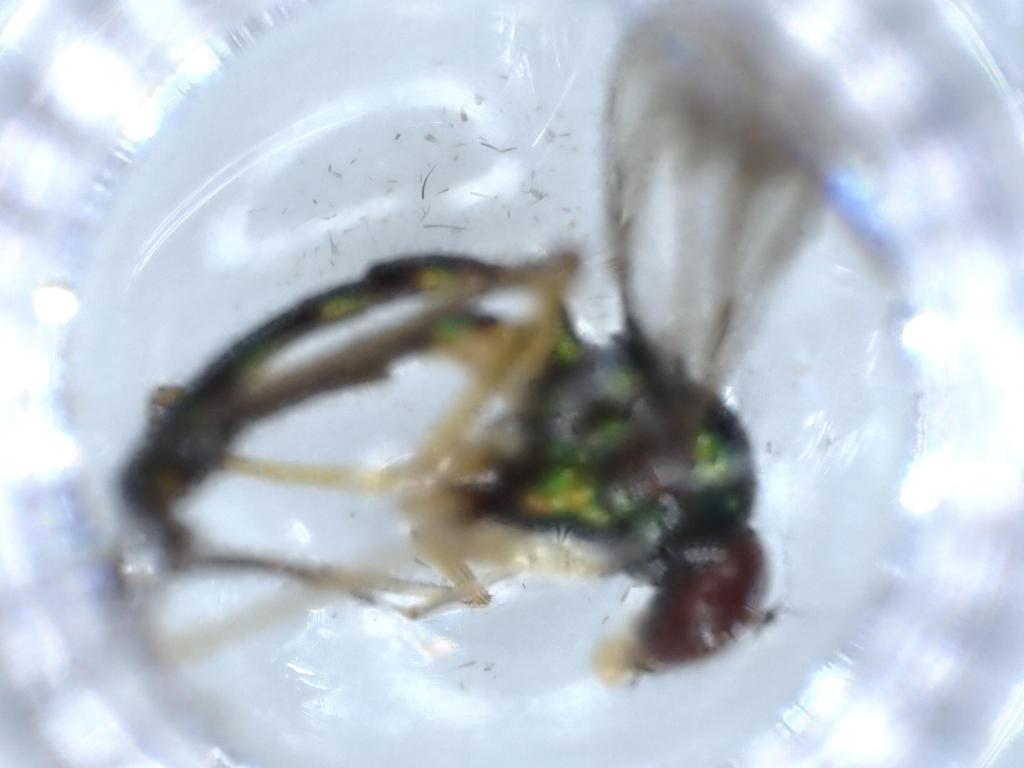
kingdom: Animalia
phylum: Arthropoda
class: Insecta
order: Diptera
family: Dolichopodidae
